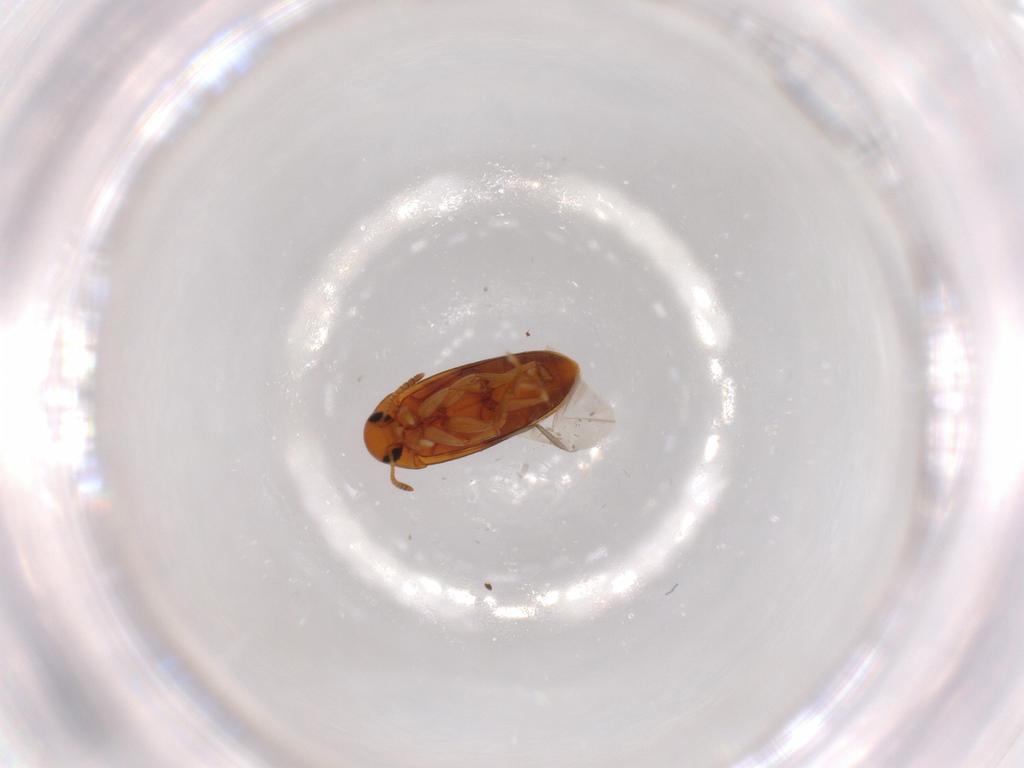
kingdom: Animalia
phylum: Arthropoda
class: Insecta
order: Coleoptera
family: Scraptiidae
